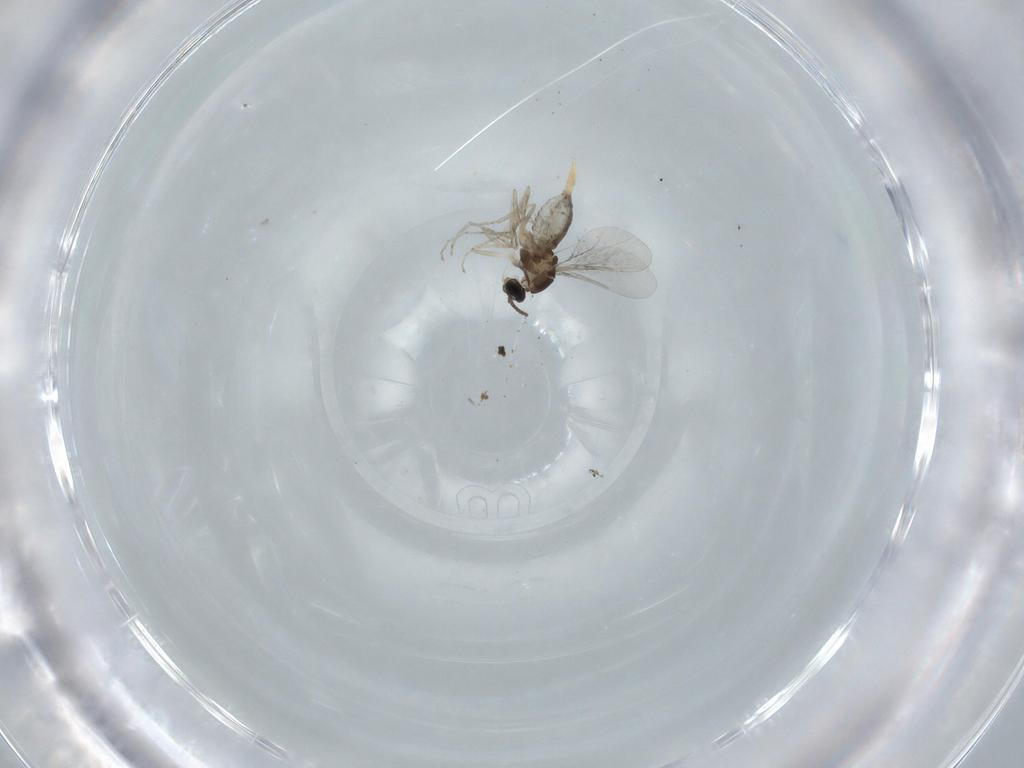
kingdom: Animalia
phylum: Arthropoda
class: Insecta
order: Diptera
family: Cecidomyiidae
